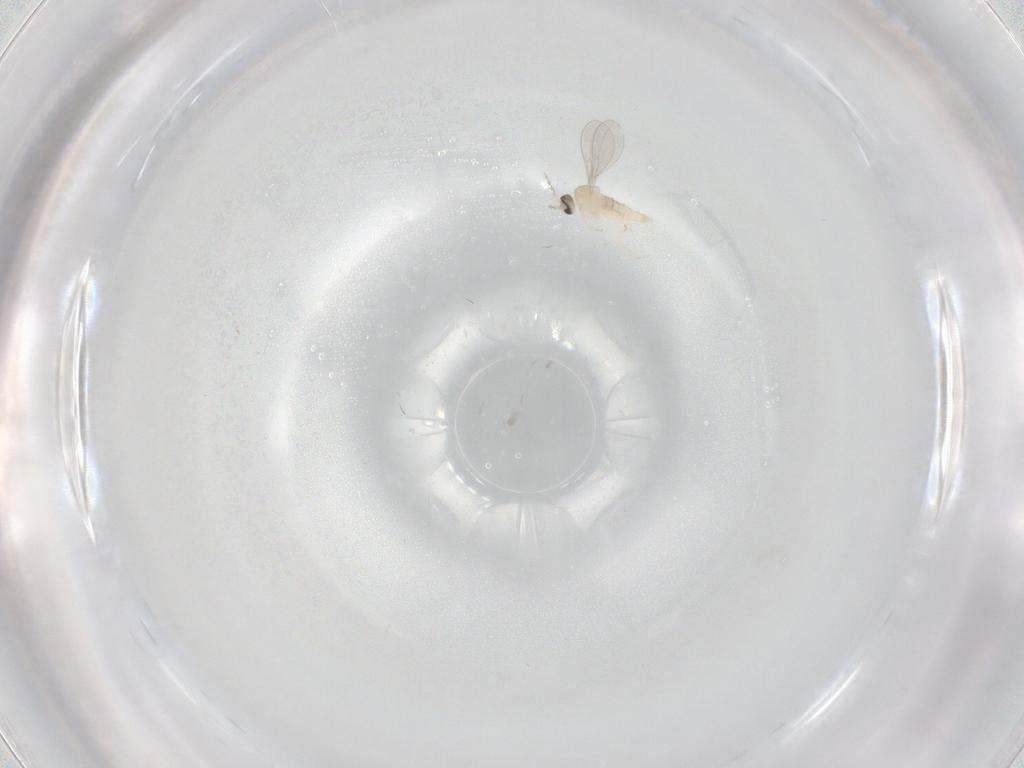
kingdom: Animalia
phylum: Arthropoda
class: Insecta
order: Diptera
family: Cecidomyiidae
